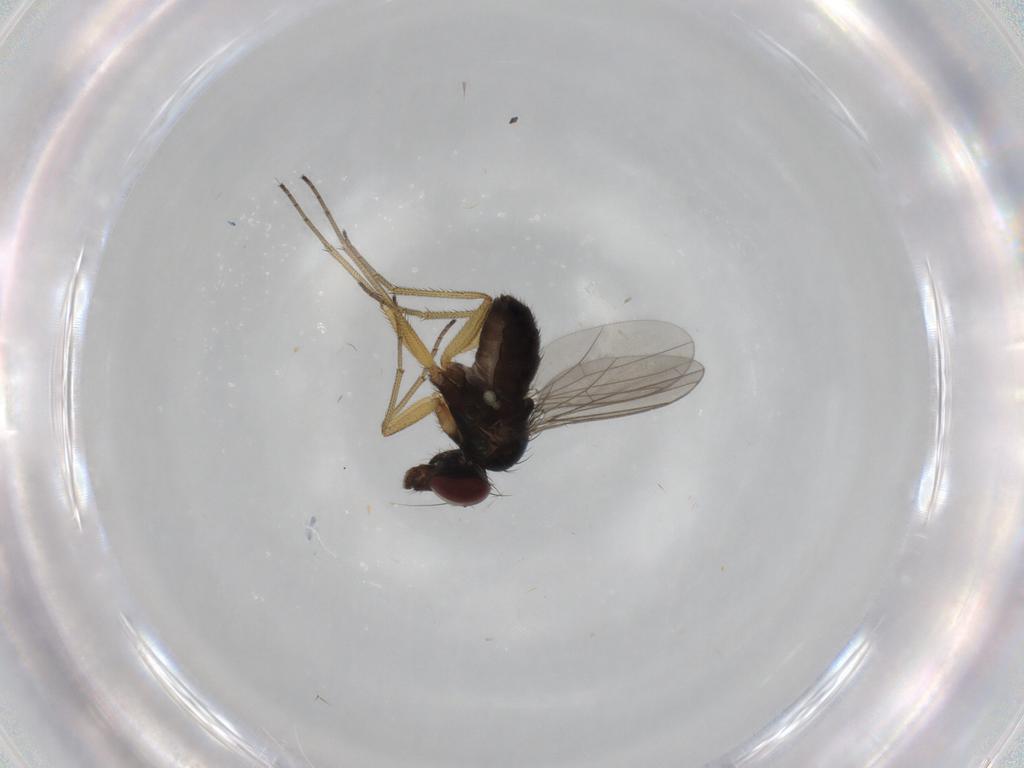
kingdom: Animalia
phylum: Arthropoda
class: Insecta
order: Diptera
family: Dolichopodidae
